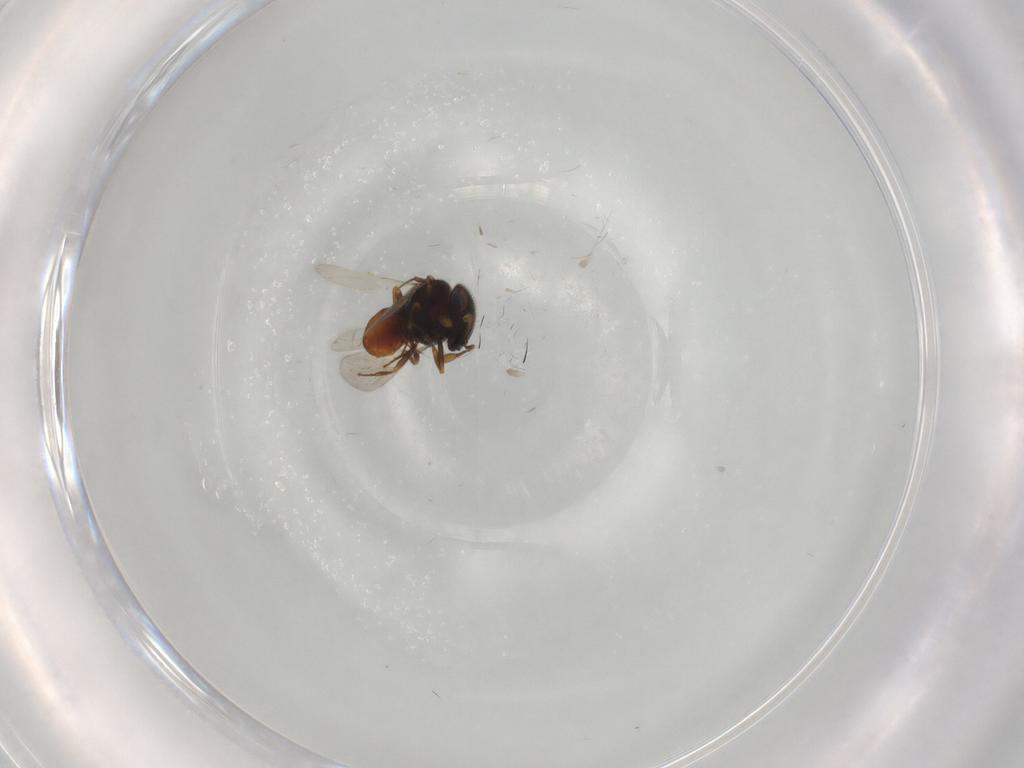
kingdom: Animalia
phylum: Arthropoda
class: Insecta
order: Hymenoptera
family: Scelionidae
